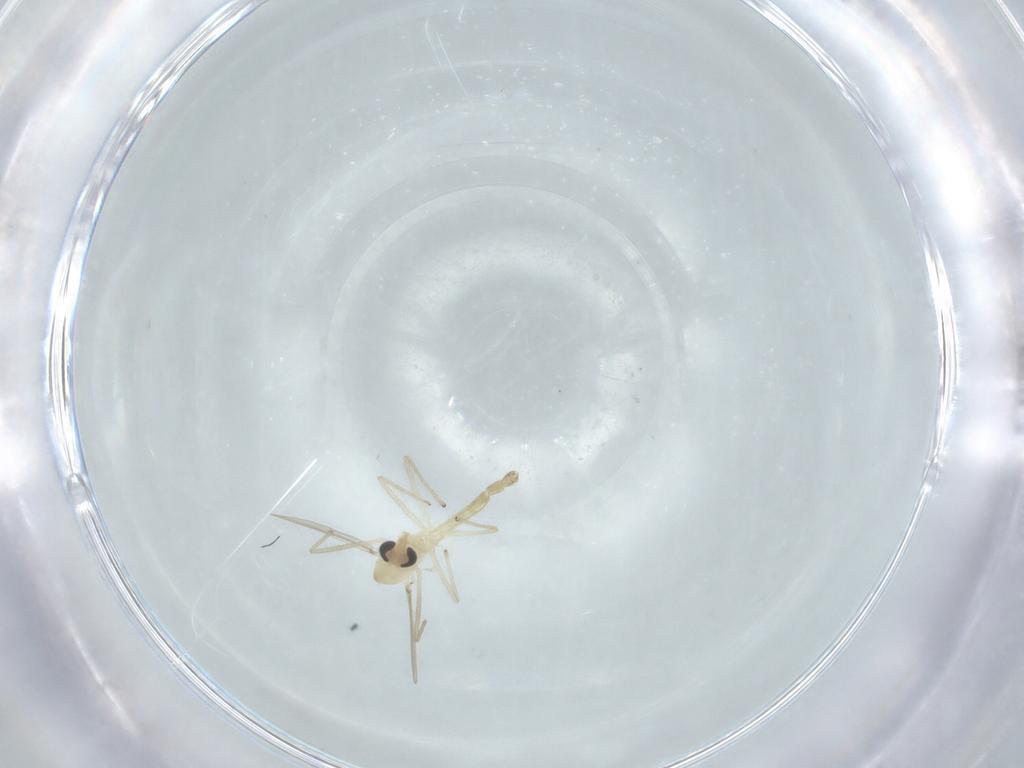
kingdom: Animalia
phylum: Arthropoda
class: Insecta
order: Diptera
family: Chironomidae
